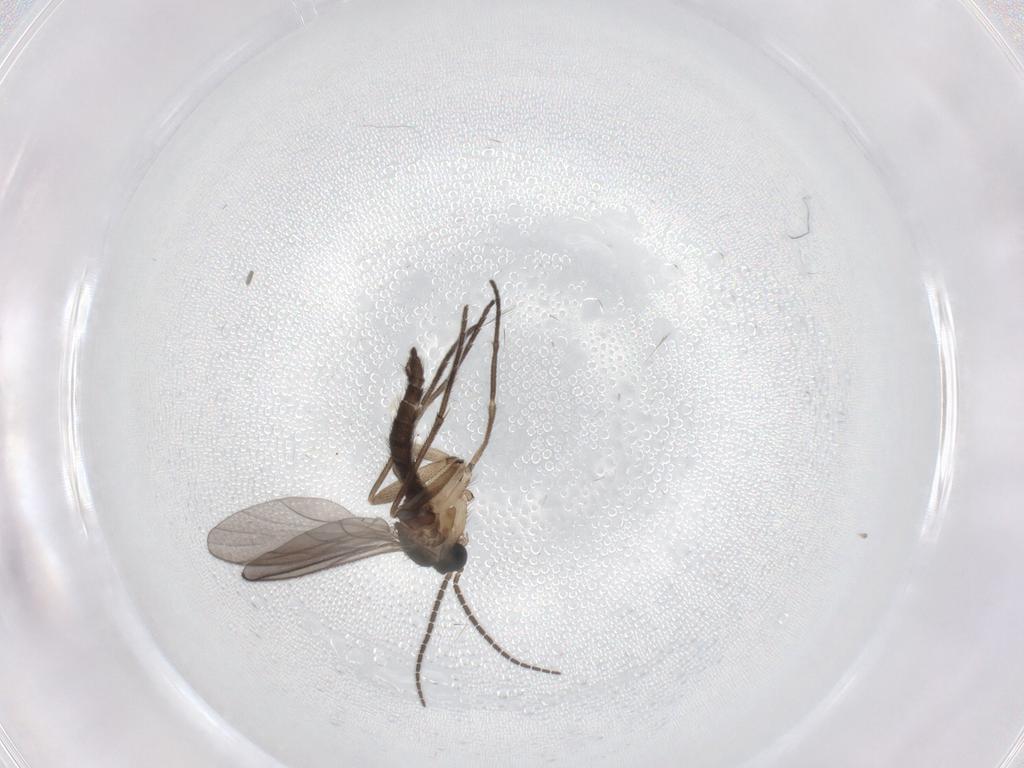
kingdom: Animalia
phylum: Arthropoda
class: Insecta
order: Diptera
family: Sciaridae
